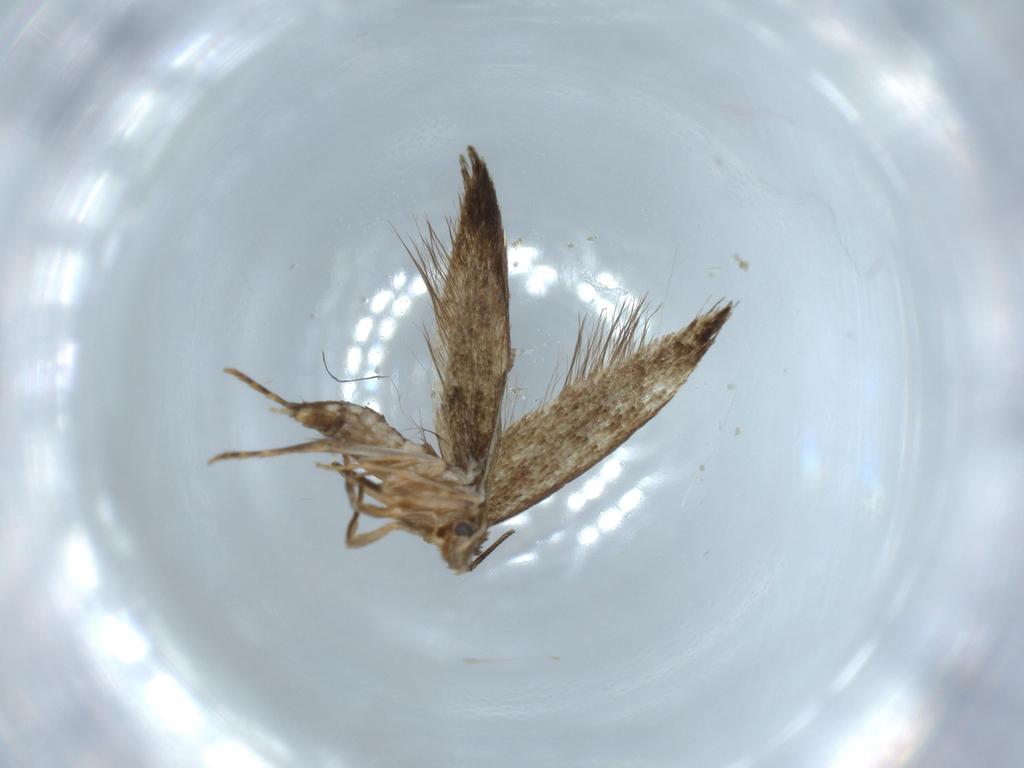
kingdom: Animalia
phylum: Arthropoda
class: Insecta
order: Lepidoptera
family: Tineidae
